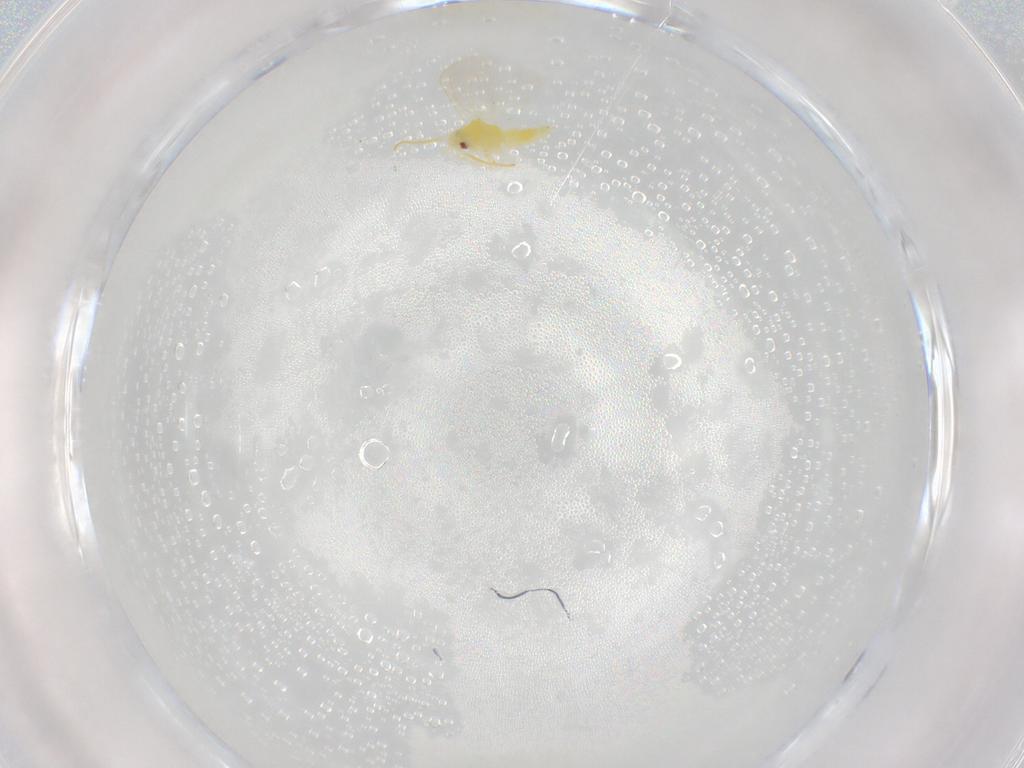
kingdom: Animalia
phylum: Arthropoda
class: Insecta
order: Hemiptera
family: Aleyrodidae
